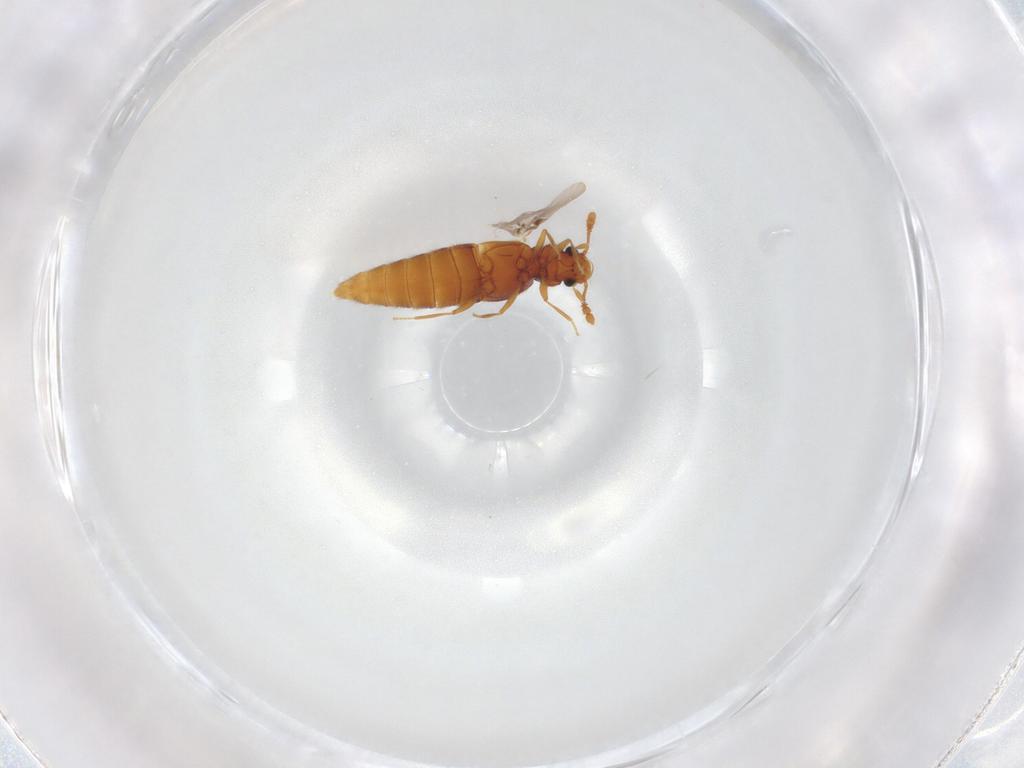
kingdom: Animalia
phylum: Arthropoda
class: Insecta
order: Coleoptera
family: Staphylinidae
